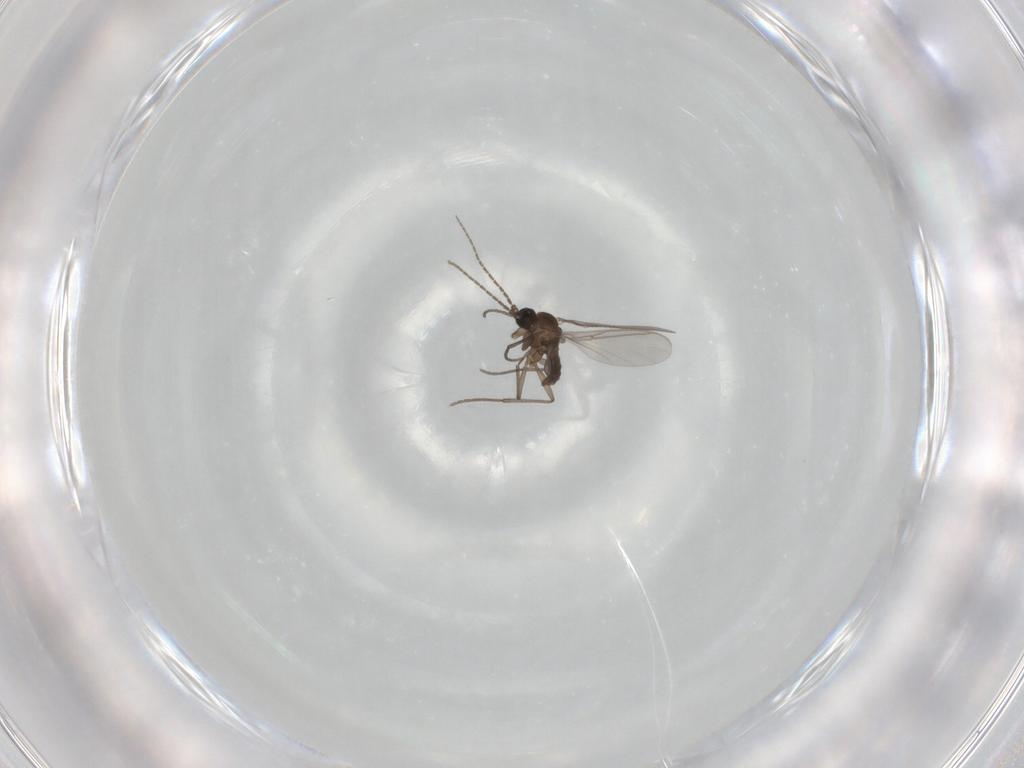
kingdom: Animalia
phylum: Arthropoda
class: Insecta
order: Diptera
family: Sciaridae
